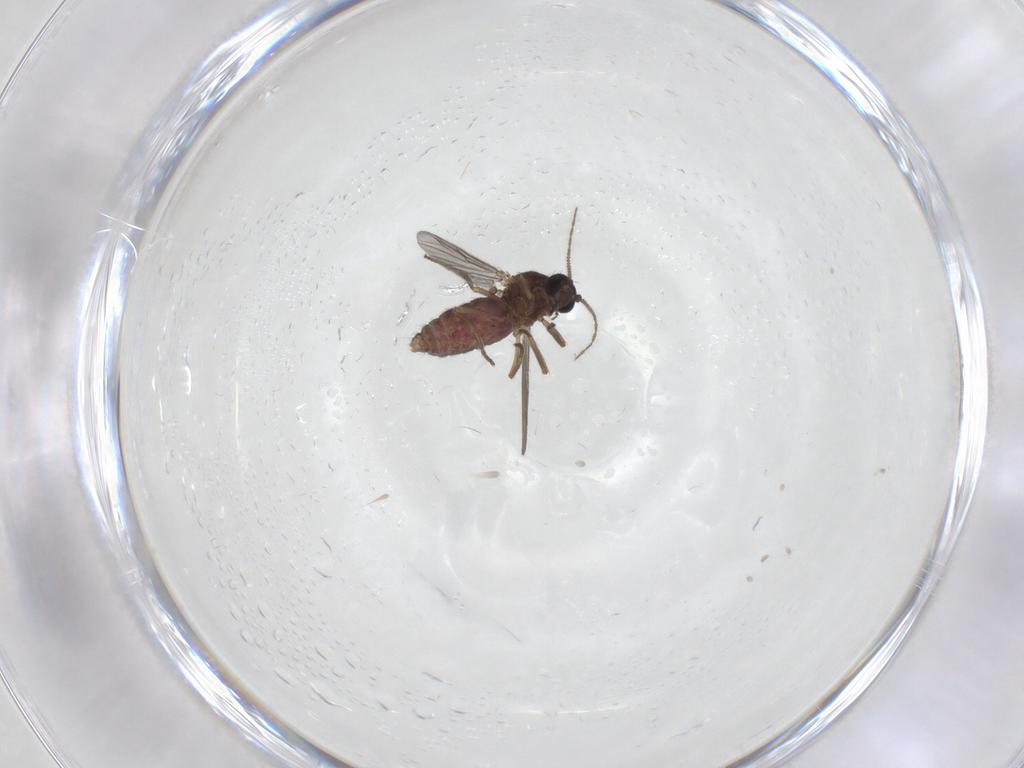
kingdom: Animalia
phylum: Arthropoda
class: Insecta
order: Diptera
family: Ceratopogonidae
